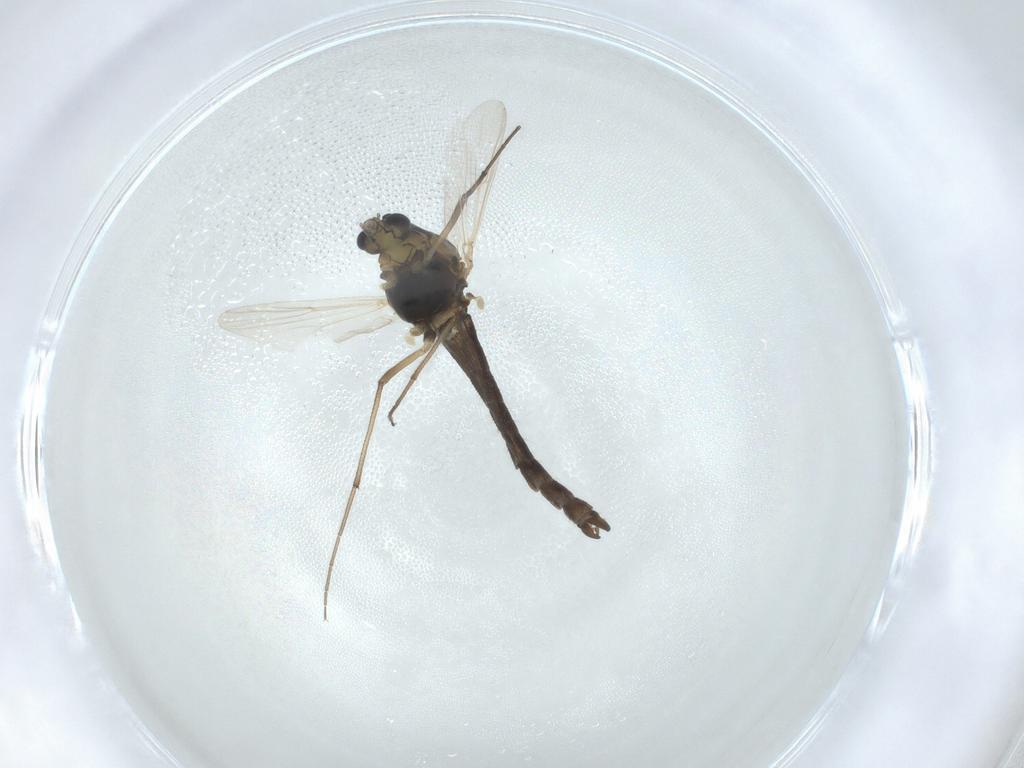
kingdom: Animalia
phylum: Arthropoda
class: Insecta
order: Diptera
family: Chironomidae
